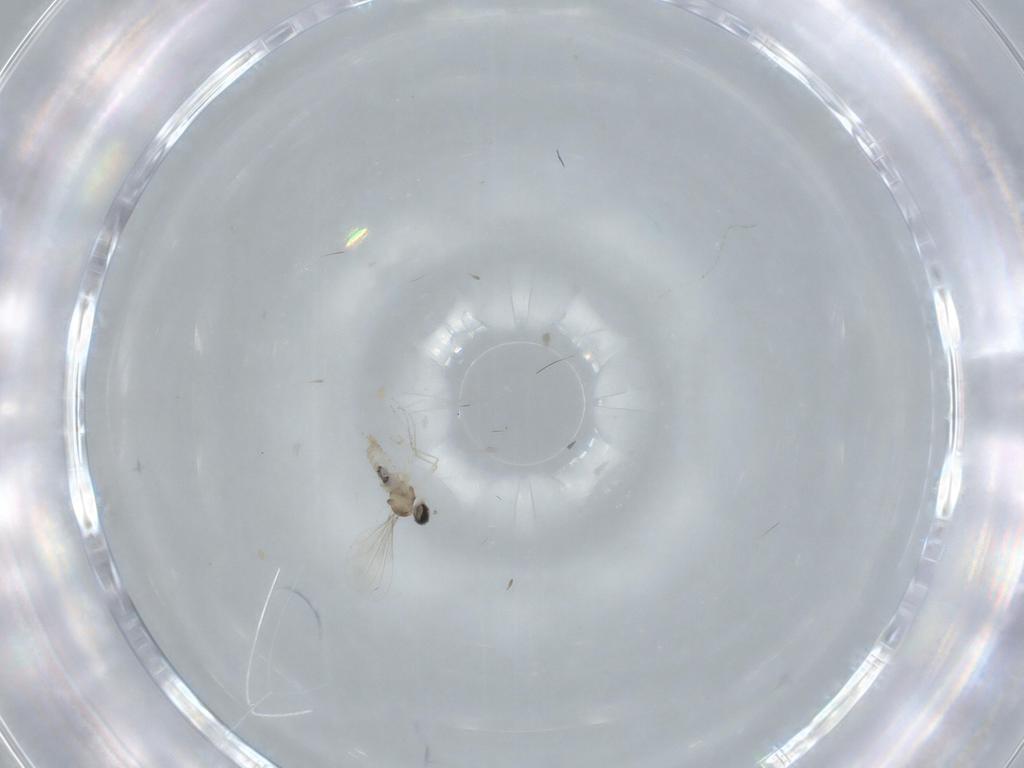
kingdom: Animalia
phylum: Arthropoda
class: Insecta
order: Diptera
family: Cecidomyiidae
